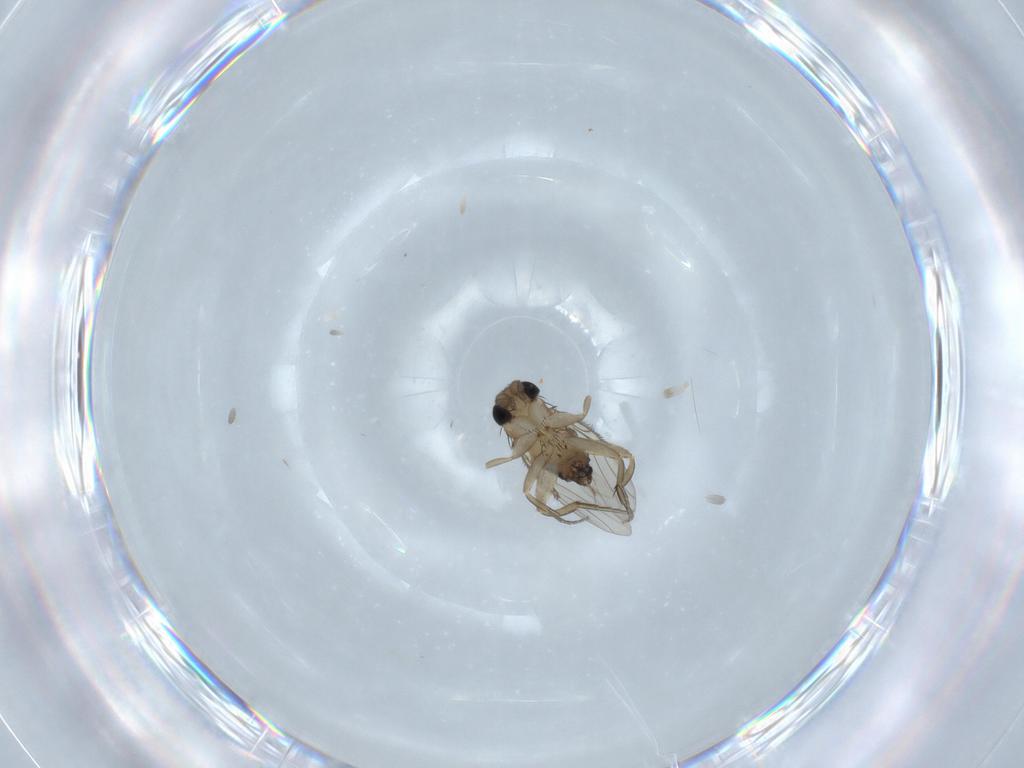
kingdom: Animalia
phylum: Arthropoda
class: Insecta
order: Diptera
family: Phoridae
